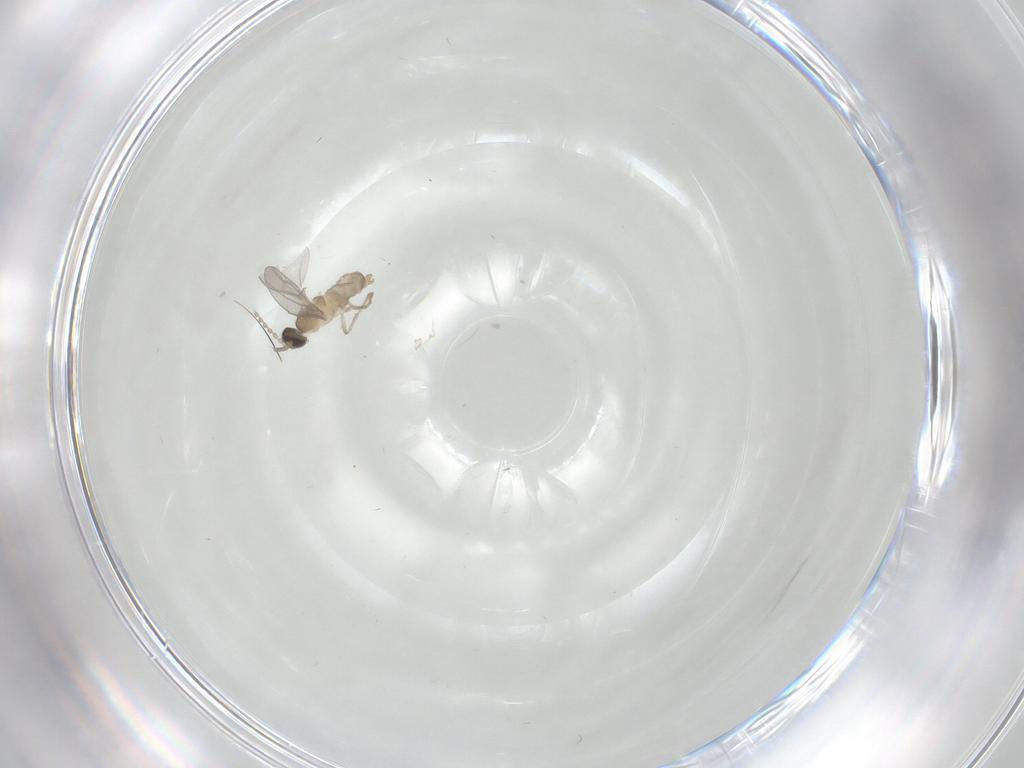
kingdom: Animalia
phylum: Arthropoda
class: Insecta
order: Diptera
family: Cecidomyiidae
